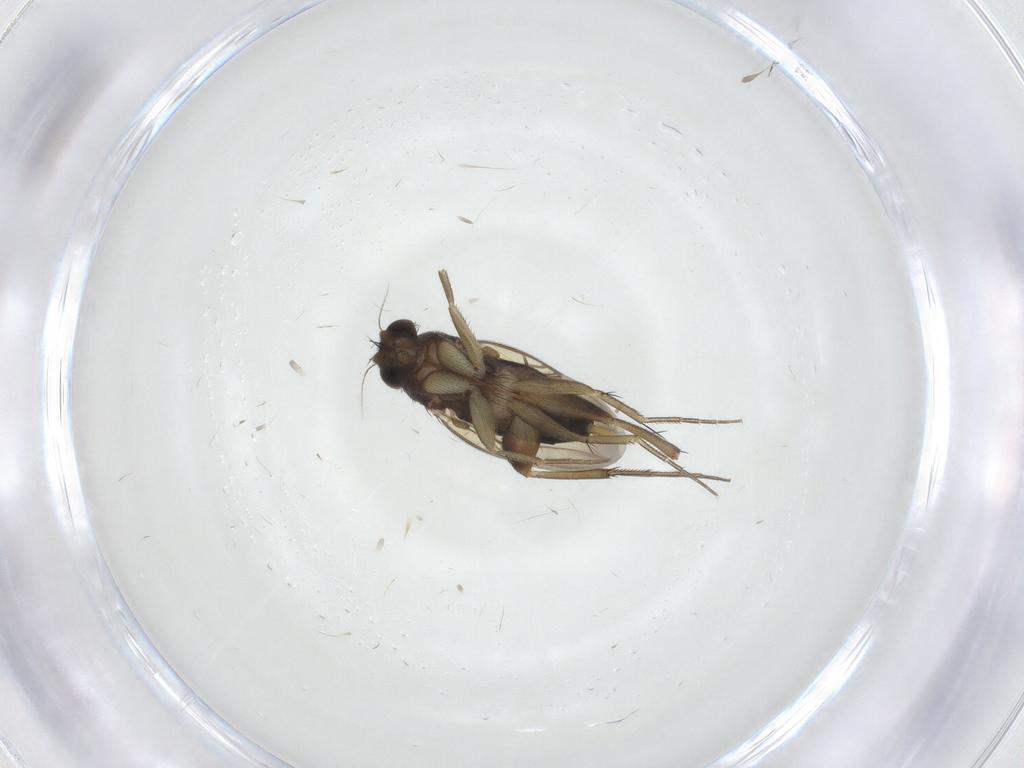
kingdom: Animalia
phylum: Arthropoda
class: Insecta
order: Diptera
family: Phoridae
